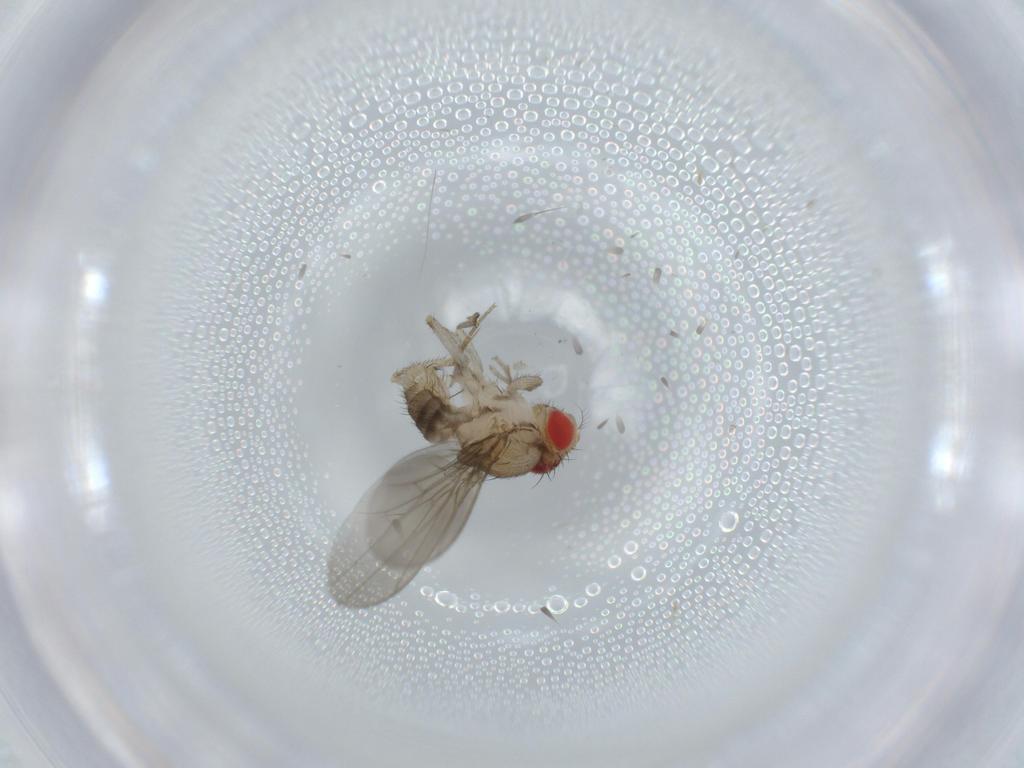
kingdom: Animalia
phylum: Arthropoda
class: Insecta
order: Diptera
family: Drosophilidae
